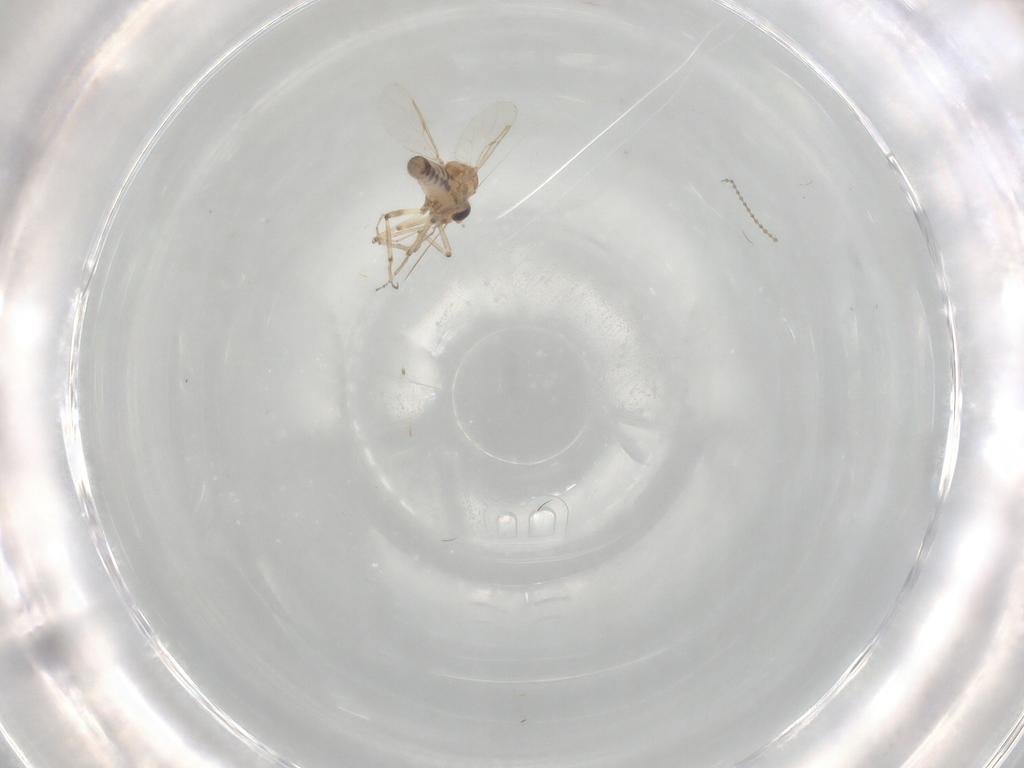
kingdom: Animalia
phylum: Arthropoda
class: Insecta
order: Diptera
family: Ceratopogonidae
